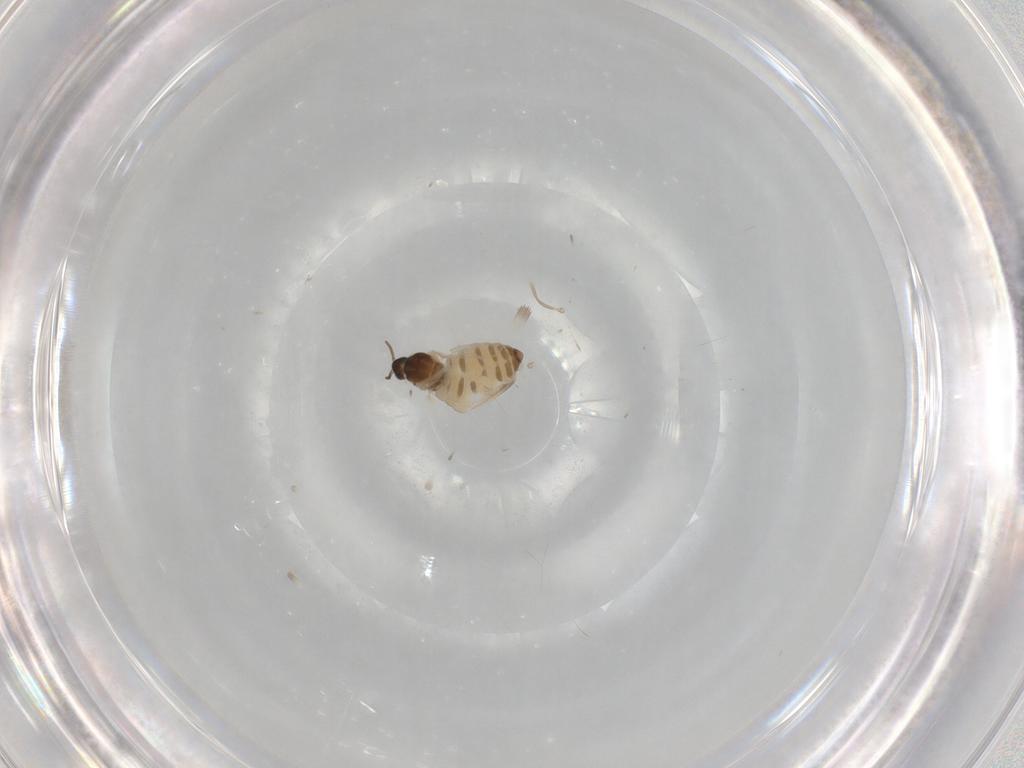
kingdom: Animalia
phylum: Arthropoda
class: Insecta
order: Diptera
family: Cecidomyiidae
